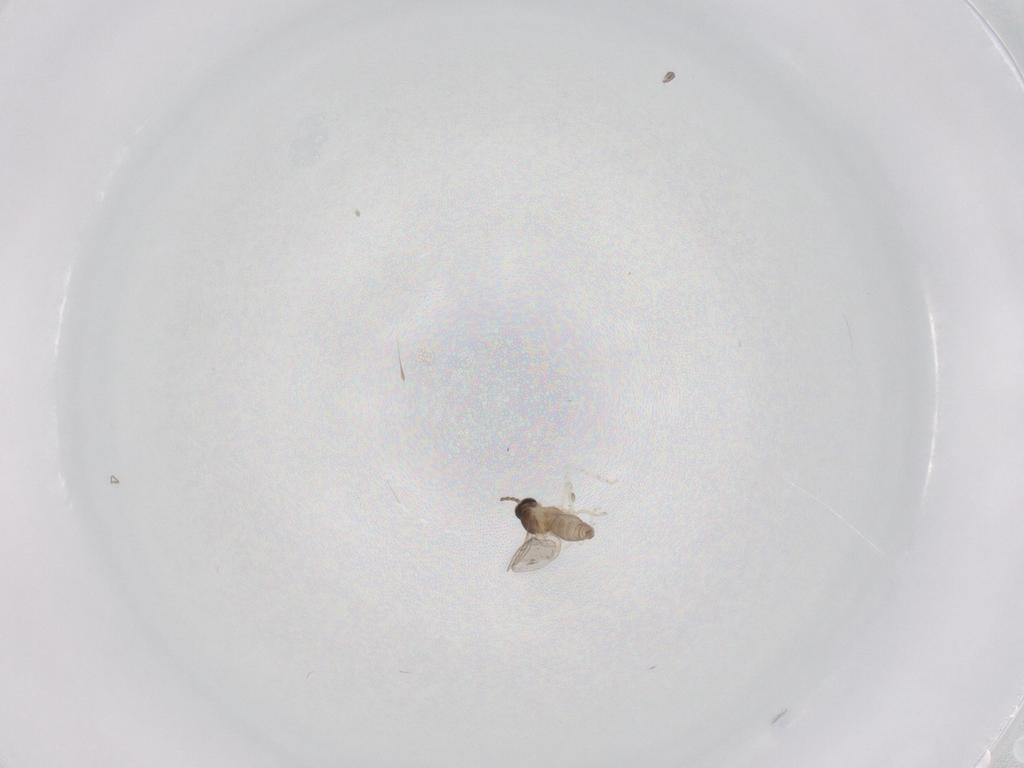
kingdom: Animalia
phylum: Arthropoda
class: Insecta
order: Diptera
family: Cecidomyiidae
